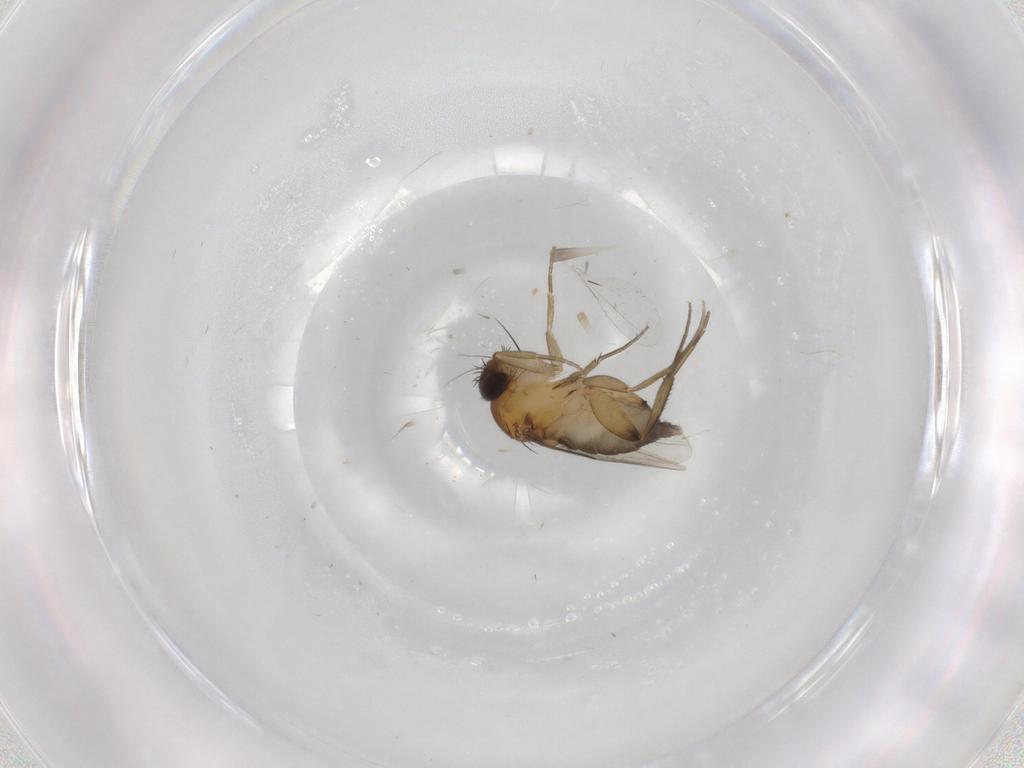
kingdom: Animalia
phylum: Arthropoda
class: Insecta
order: Diptera
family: Phoridae
